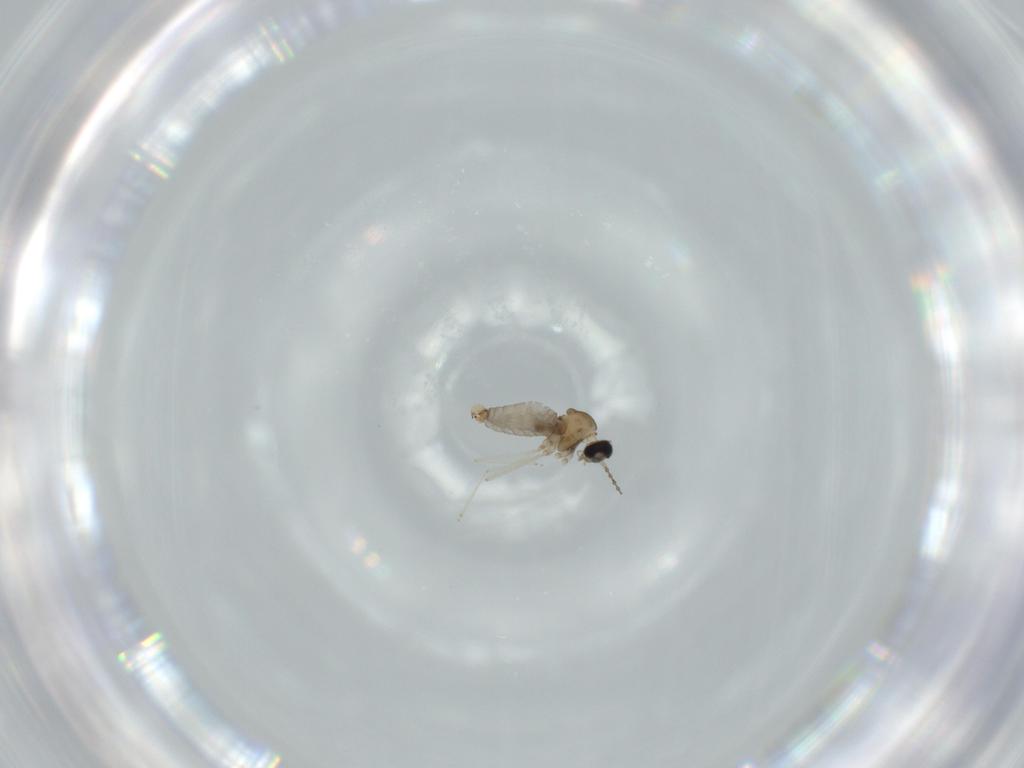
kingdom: Animalia
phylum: Arthropoda
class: Insecta
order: Diptera
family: Cecidomyiidae
